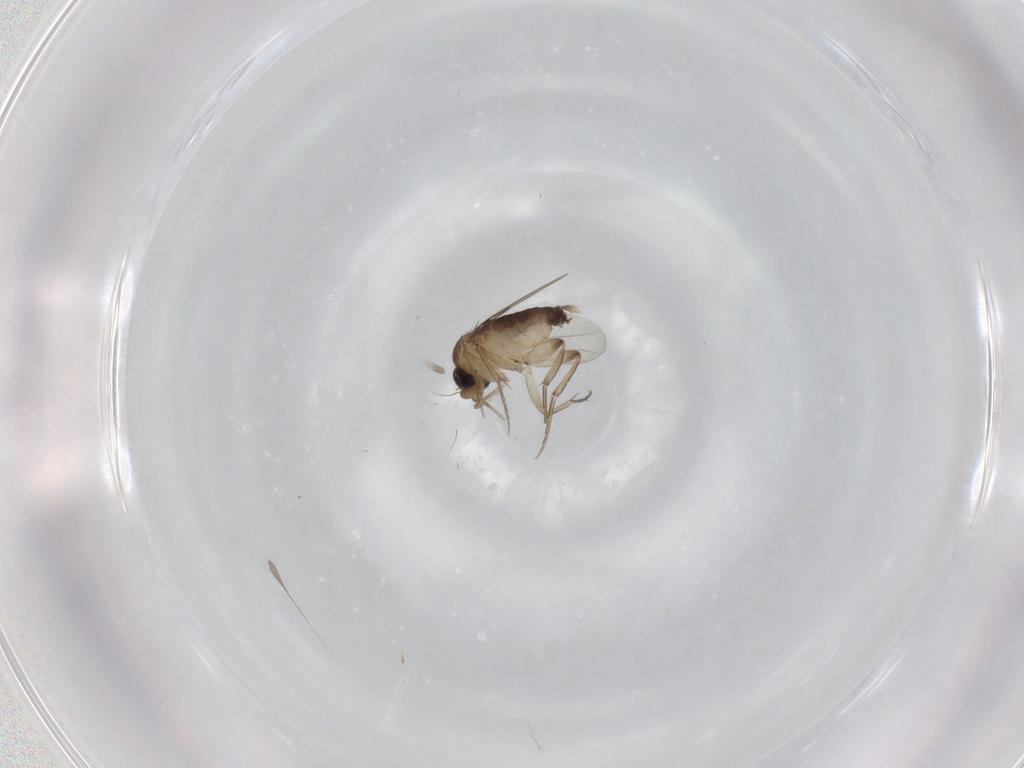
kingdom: Animalia
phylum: Arthropoda
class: Insecta
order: Diptera
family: Phoridae
